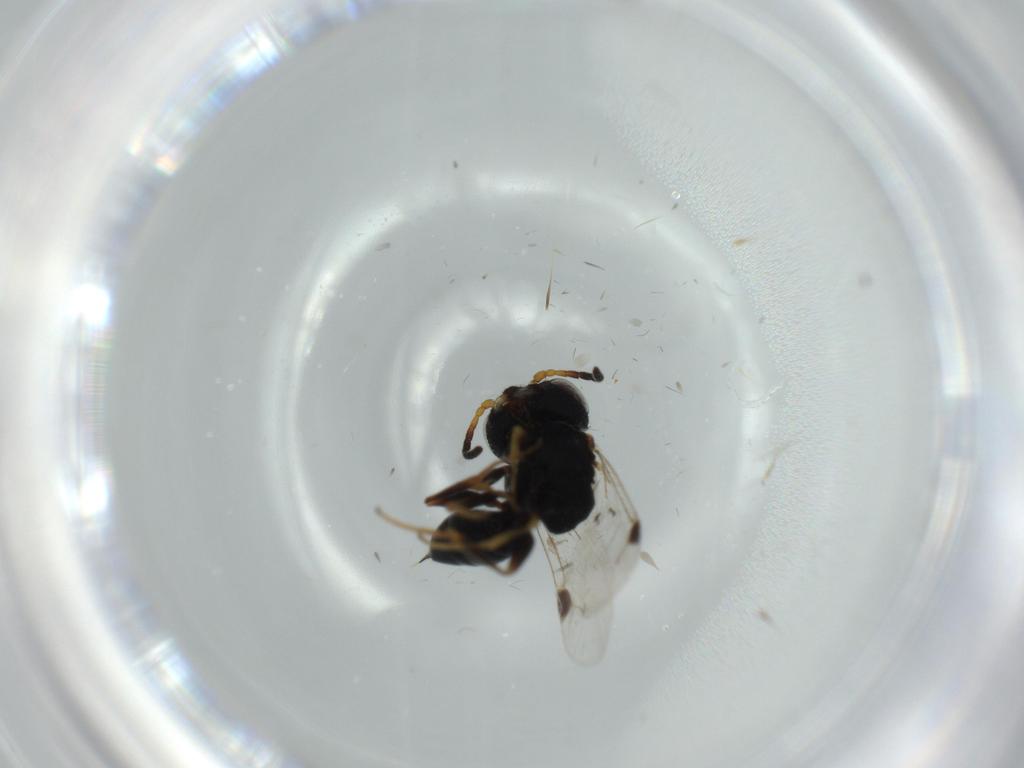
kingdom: Animalia
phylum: Arthropoda
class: Insecta
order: Hymenoptera
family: Dryinidae
